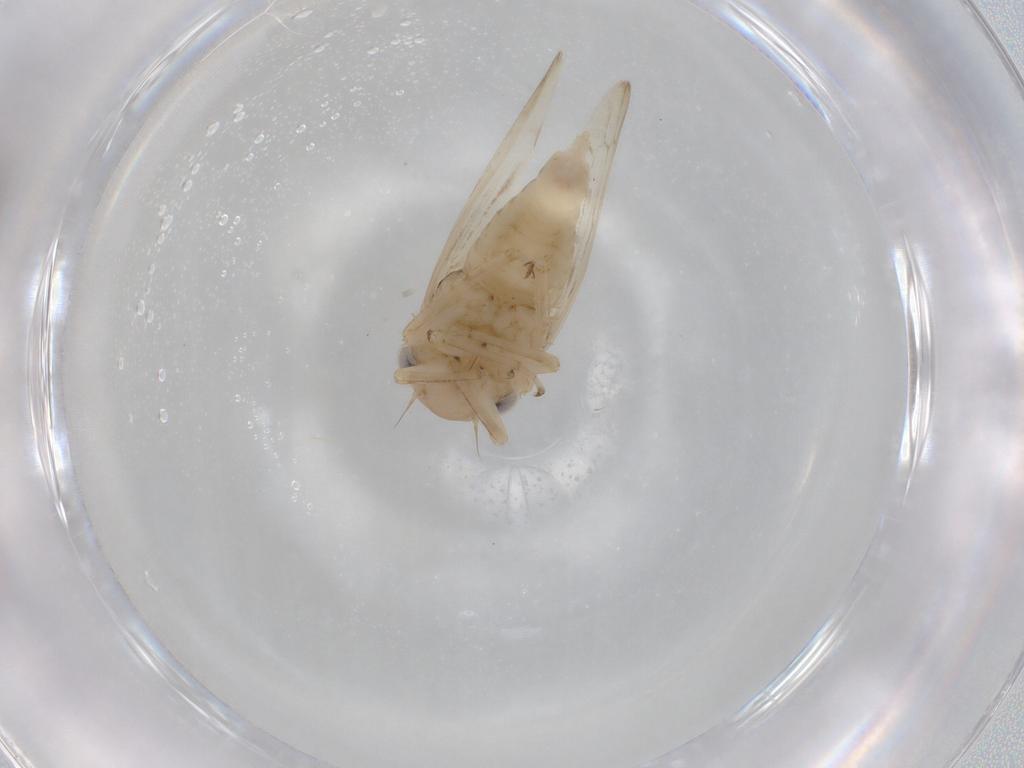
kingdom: Animalia
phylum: Arthropoda
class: Insecta
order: Hemiptera
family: Cicadellidae
